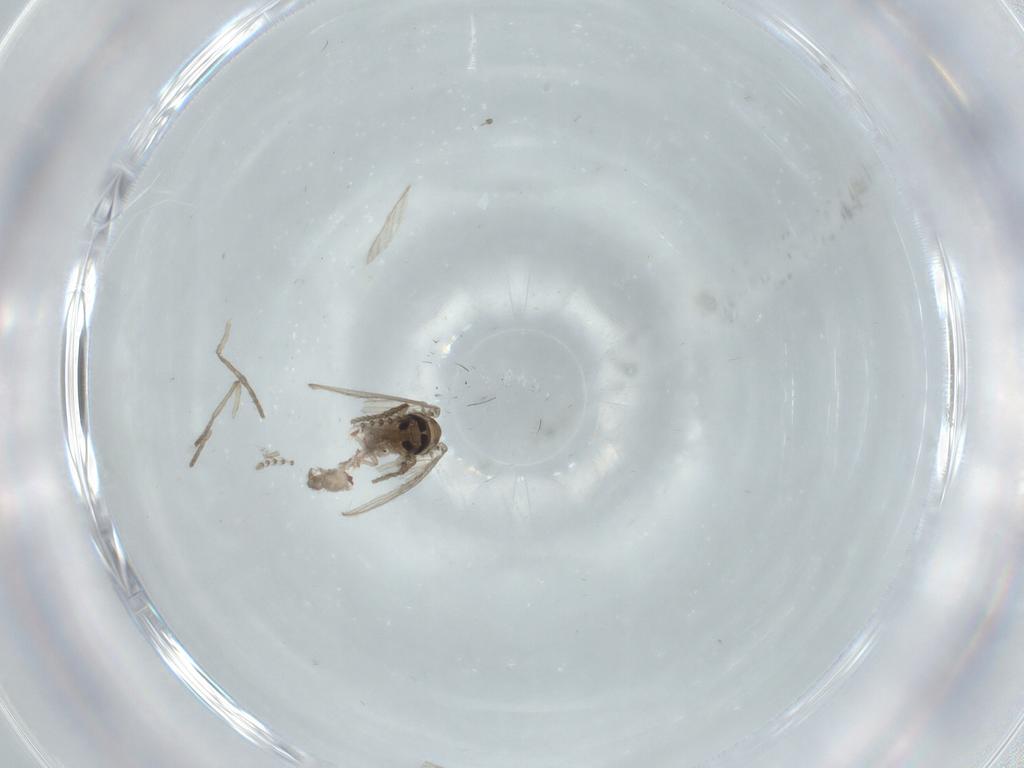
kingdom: Animalia
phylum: Arthropoda
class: Insecta
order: Diptera
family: Psychodidae
